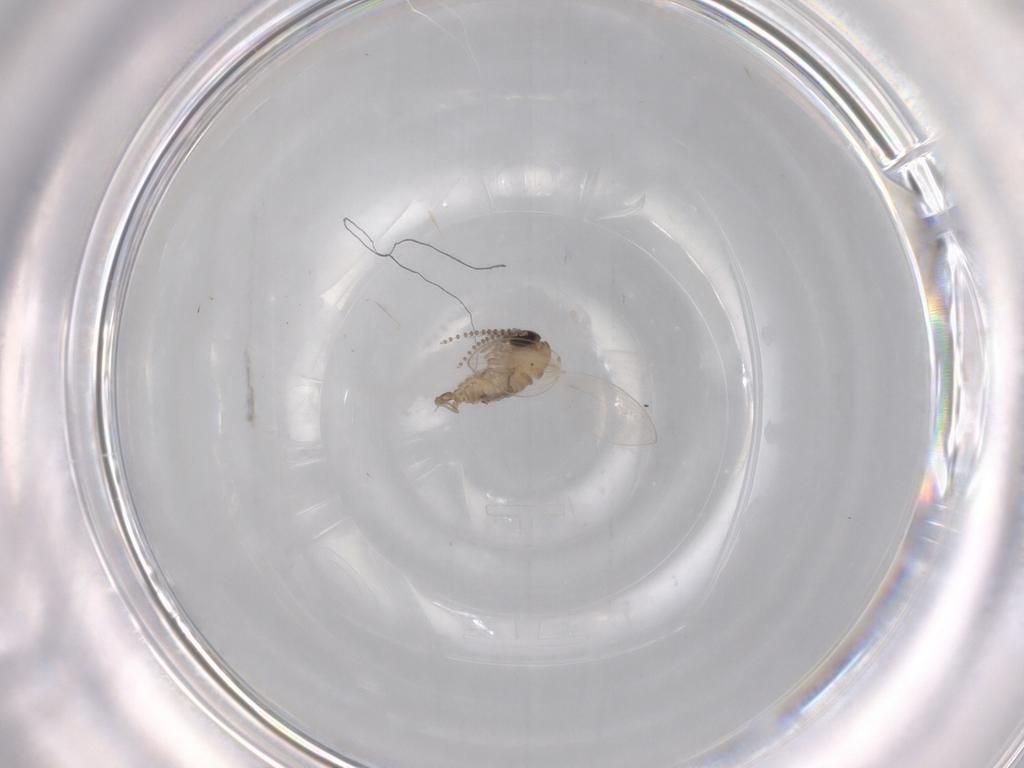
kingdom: Animalia
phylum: Arthropoda
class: Insecta
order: Diptera
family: Psychodidae
